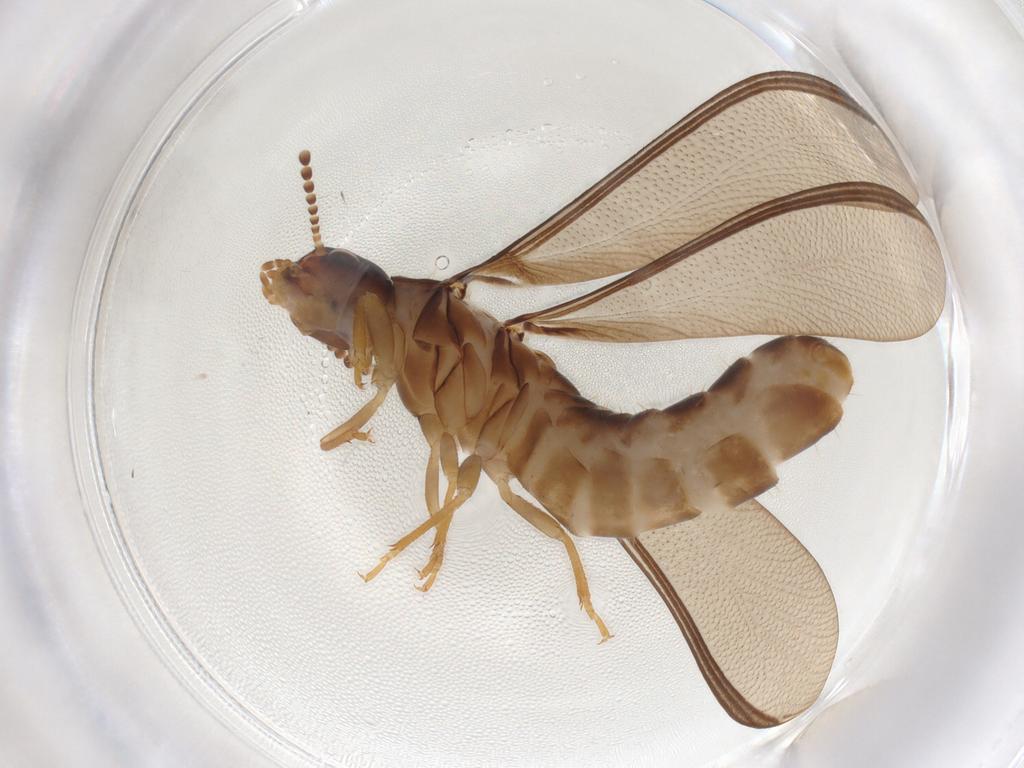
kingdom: Animalia
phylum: Arthropoda
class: Insecta
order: Blattodea
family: Kalotermitidae
